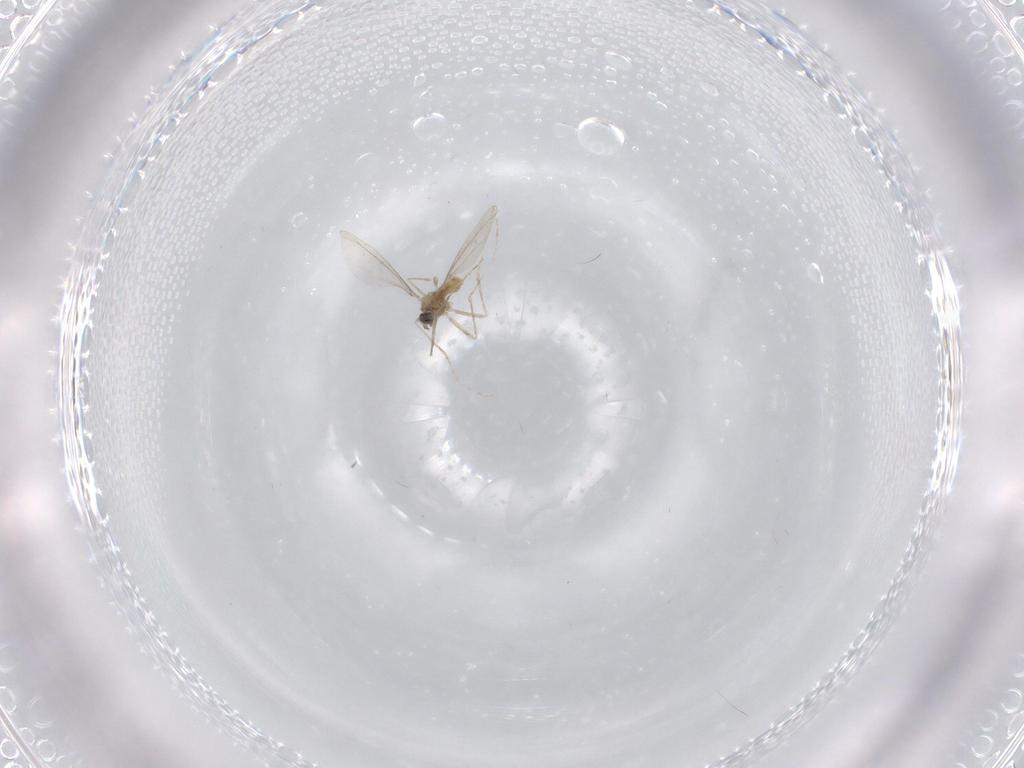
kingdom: Animalia
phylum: Arthropoda
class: Insecta
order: Diptera
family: Cecidomyiidae
